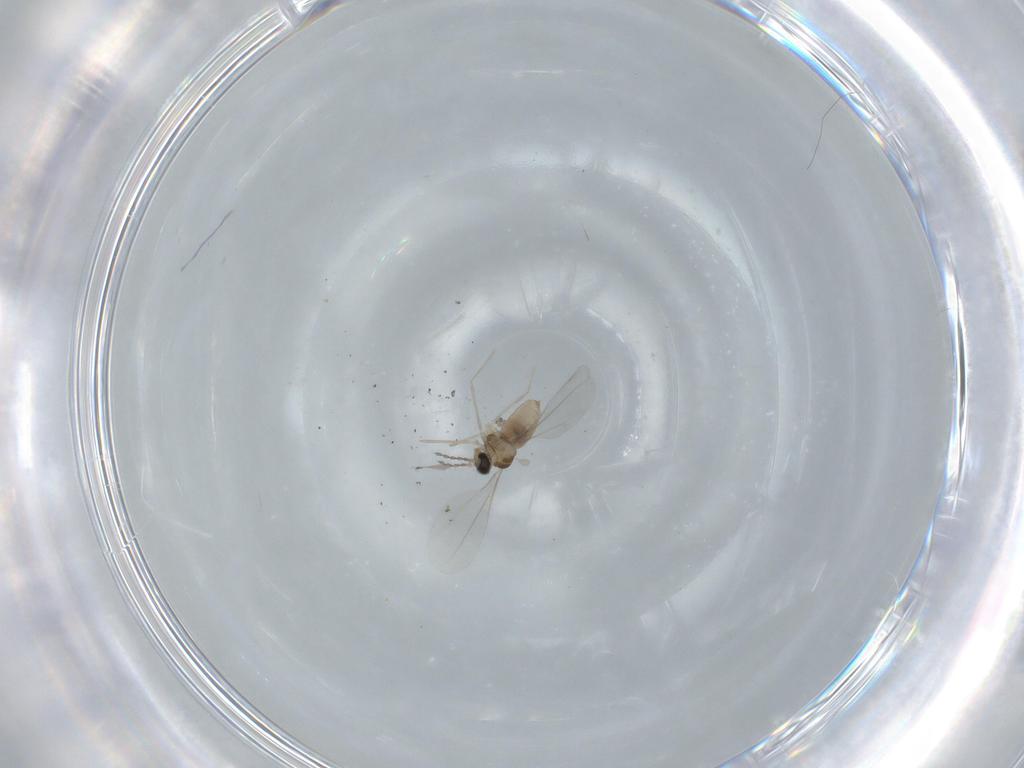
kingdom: Animalia
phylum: Arthropoda
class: Insecta
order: Diptera
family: Cecidomyiidae
